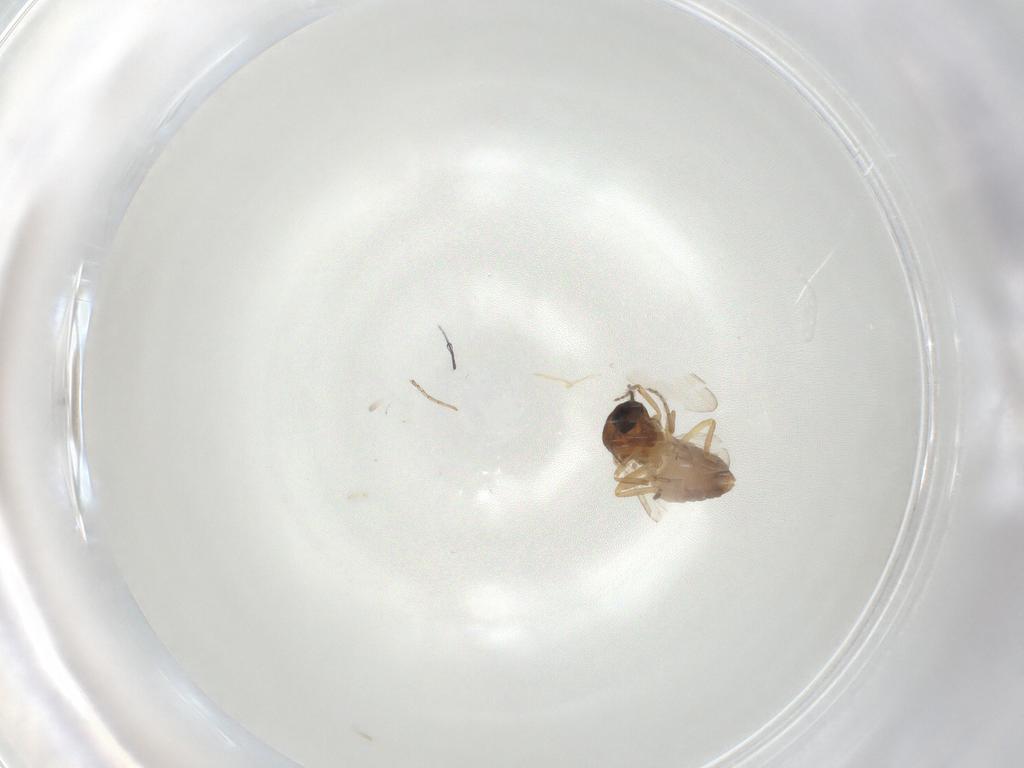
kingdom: Animalia
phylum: Arthropoda
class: Insecta
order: Diptera
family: Ceratopogonidae
